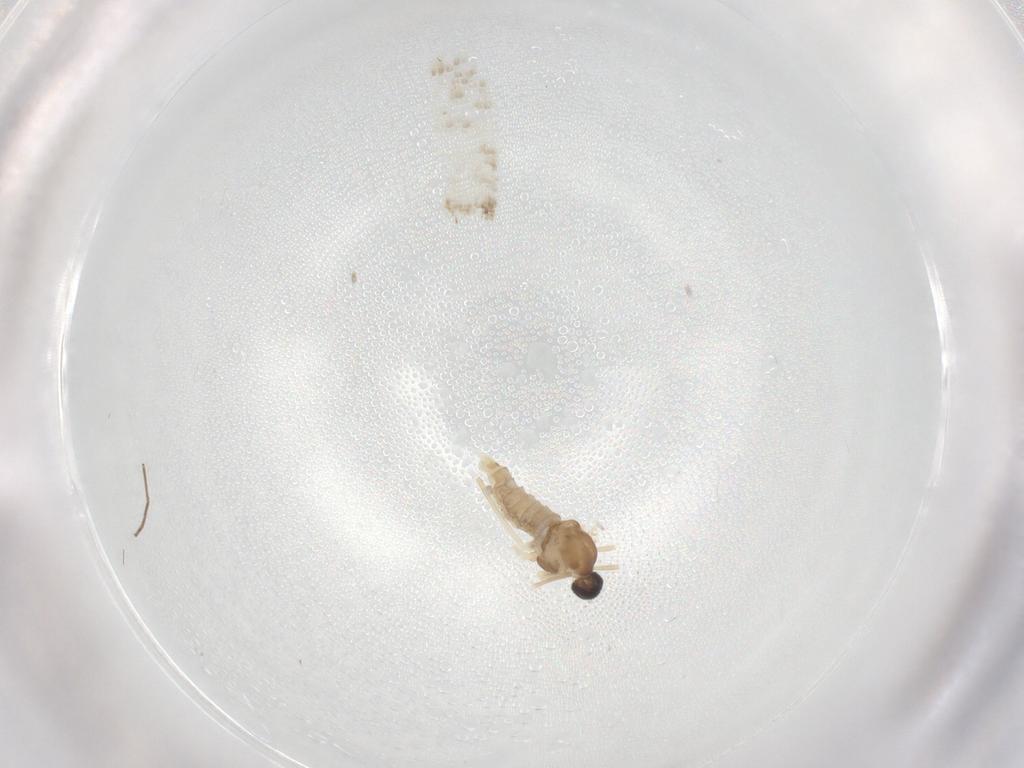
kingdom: Animalia
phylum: Arthropoda
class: Insecta
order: Diptera
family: Cecidomyiidae
